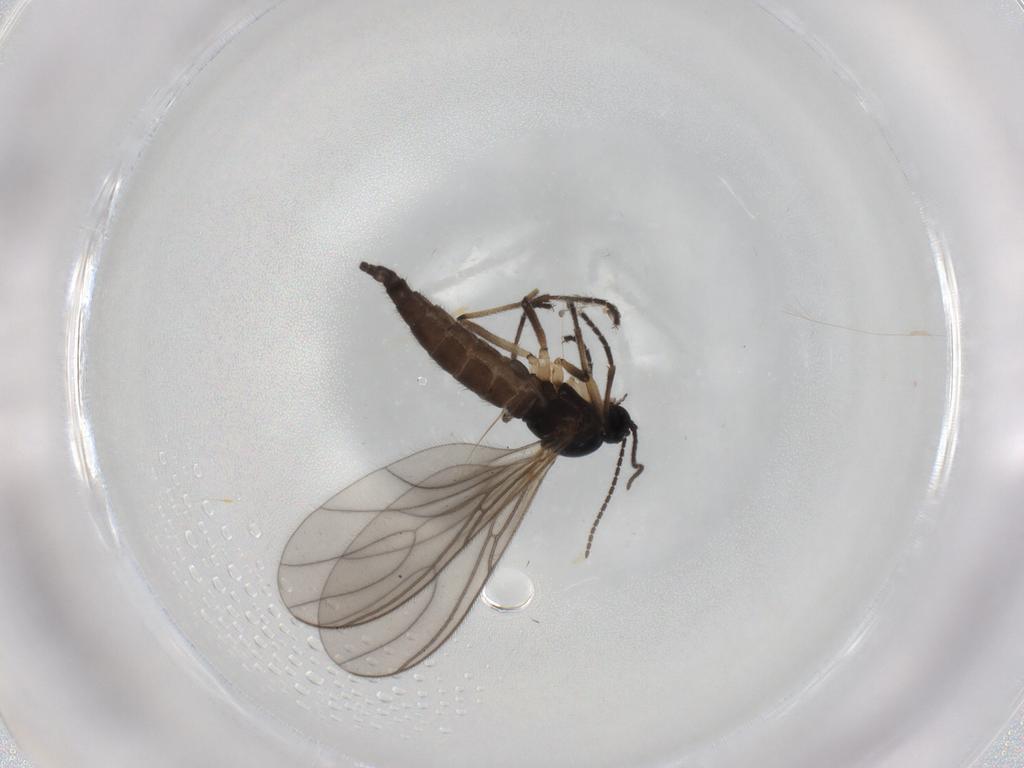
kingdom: Animalia
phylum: Arthropoda
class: Insecta
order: Diptera
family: Sciaridae
